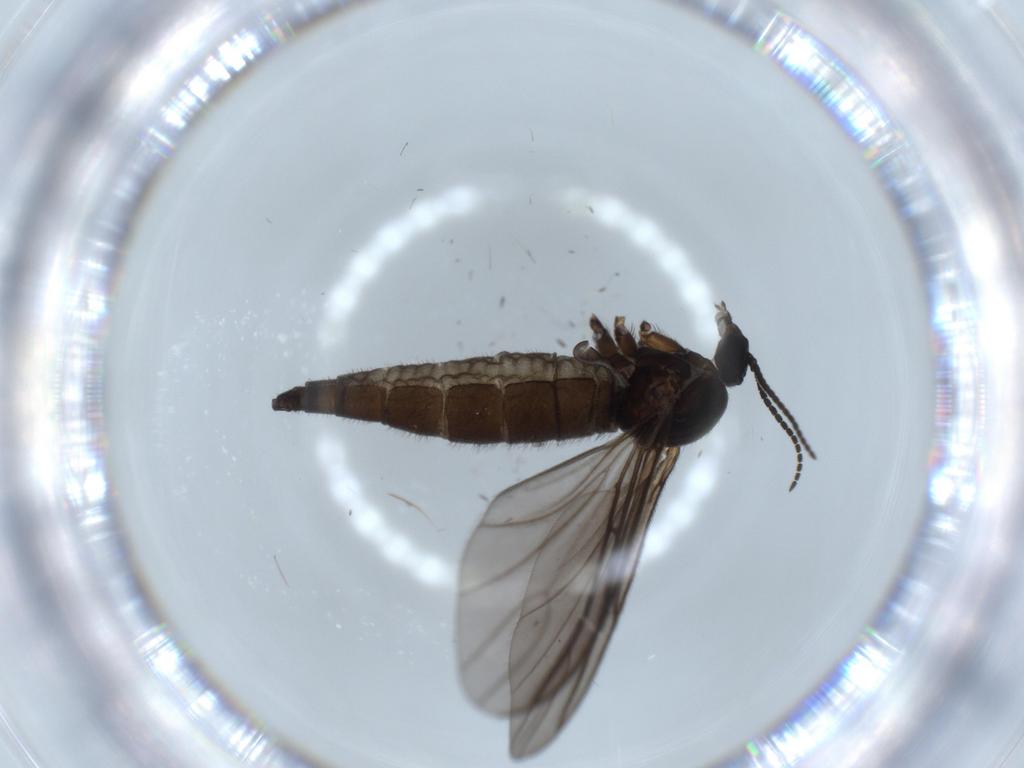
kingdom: Animalia
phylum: Arthropoda
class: Insecta
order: Diptera
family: Sciaridae
